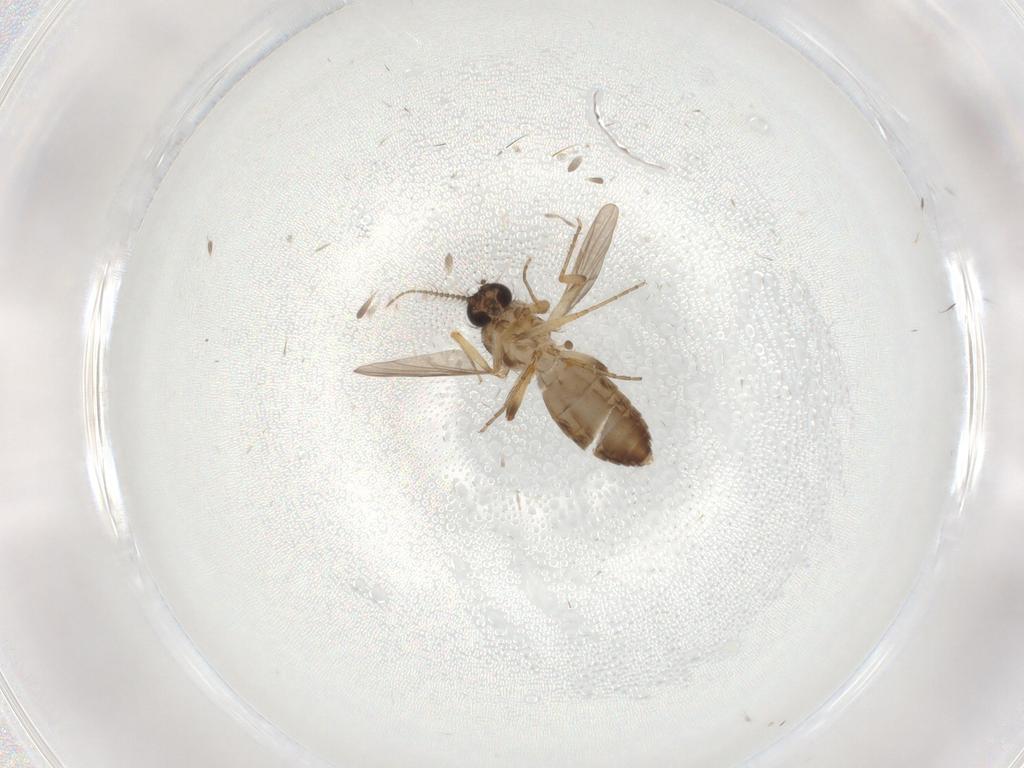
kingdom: Animalia
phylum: Arthropoda
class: Insecta
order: Diptera
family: Ceratopogonidae
